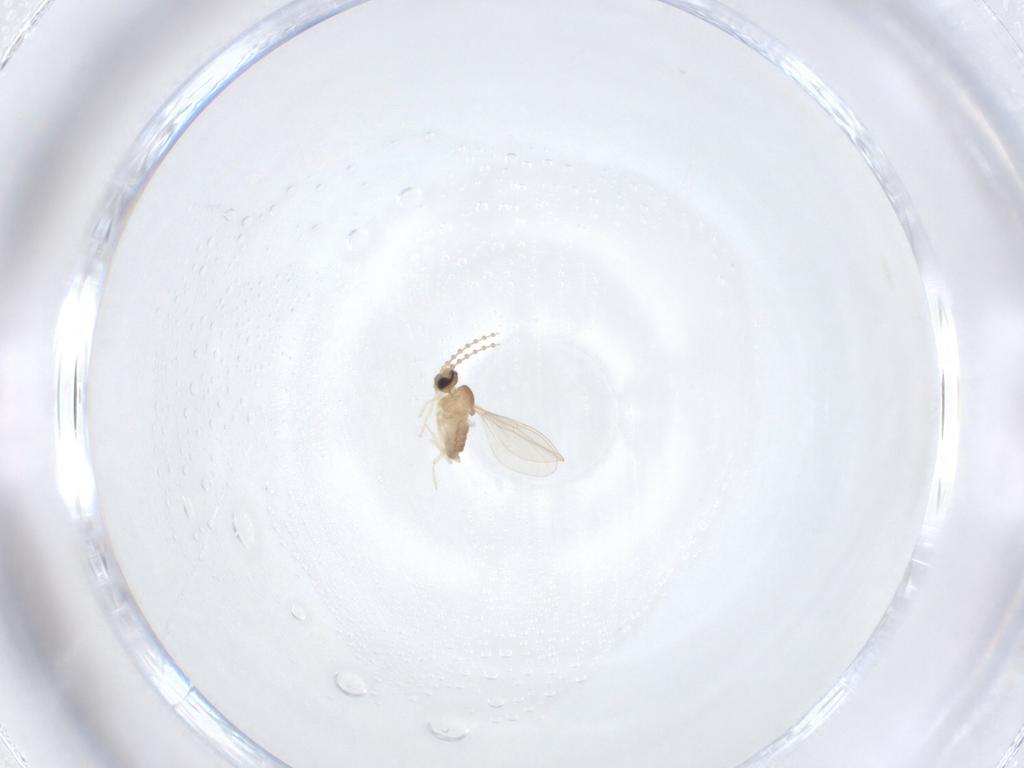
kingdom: Animalia
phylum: Arthropoda
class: Insecta
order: Diptera
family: Cecidomyiidae
